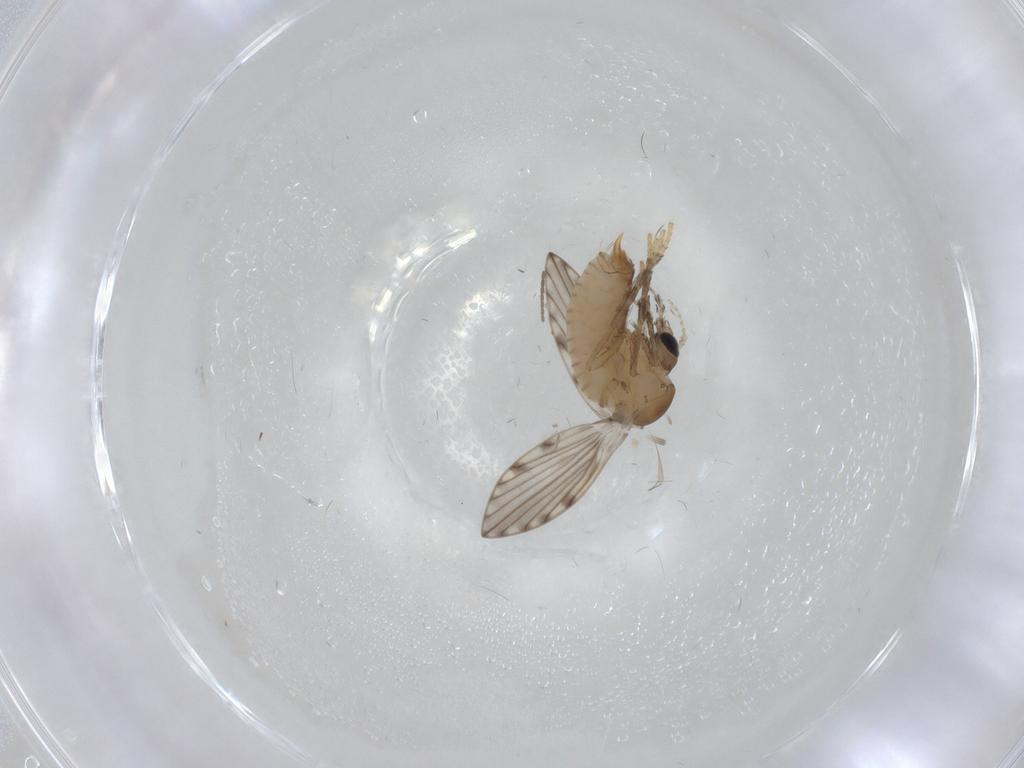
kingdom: Animalia
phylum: Arthropoda
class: Insecta
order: Diptera
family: Psychodidae
